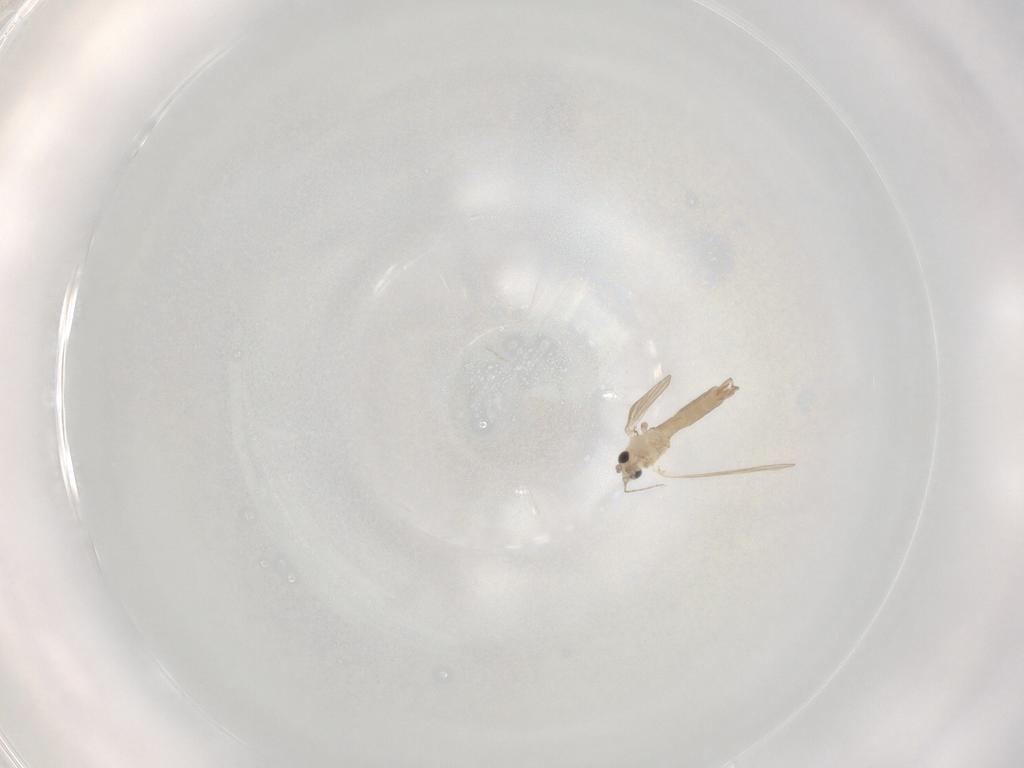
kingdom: Animalia
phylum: Arthropoda
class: Insecta
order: Diptera
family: Psychodidae
